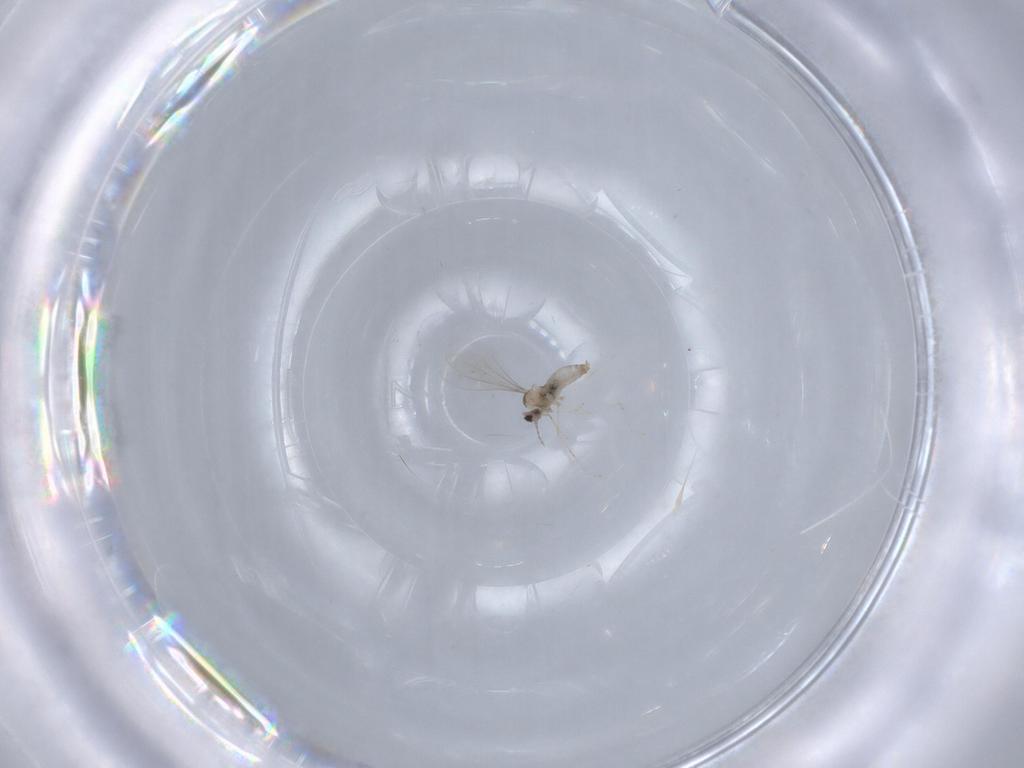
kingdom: Animalia
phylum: Arthropoda
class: Insecta
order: Diptera
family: Cecidomyiidae
